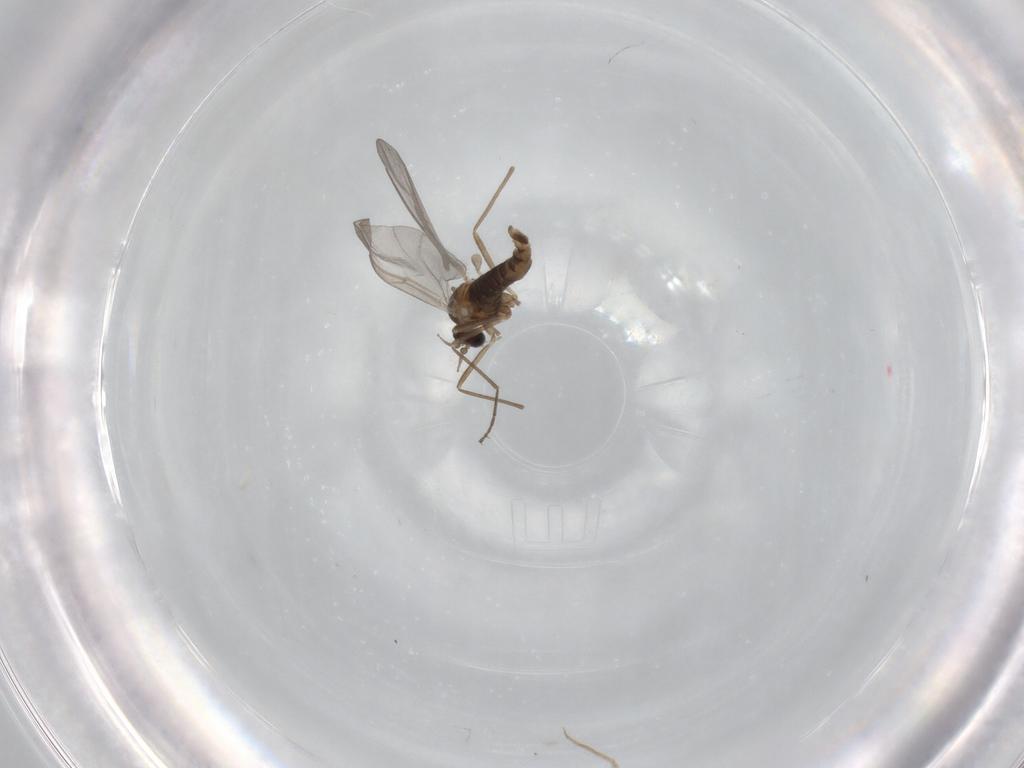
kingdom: Animalia
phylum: Arthropoda
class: Insecta
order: Diptera
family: Cecidomyiidae
